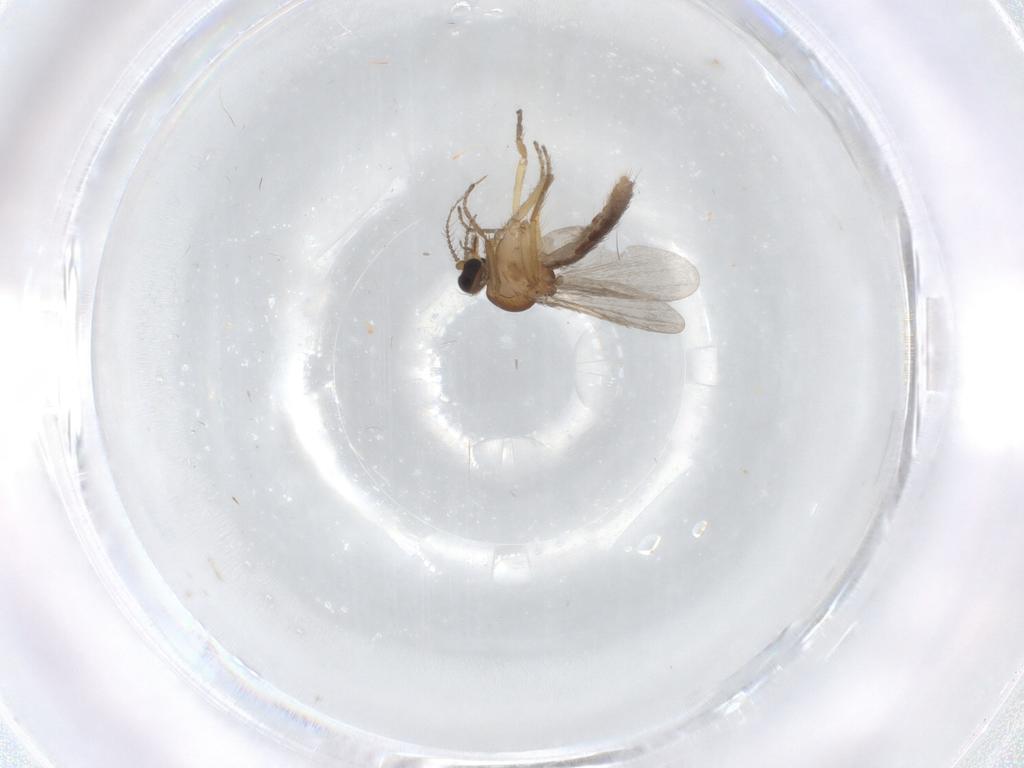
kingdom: Animalia
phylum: Arthropoda
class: Insecta
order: Diptera
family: Ceratopogonidae
